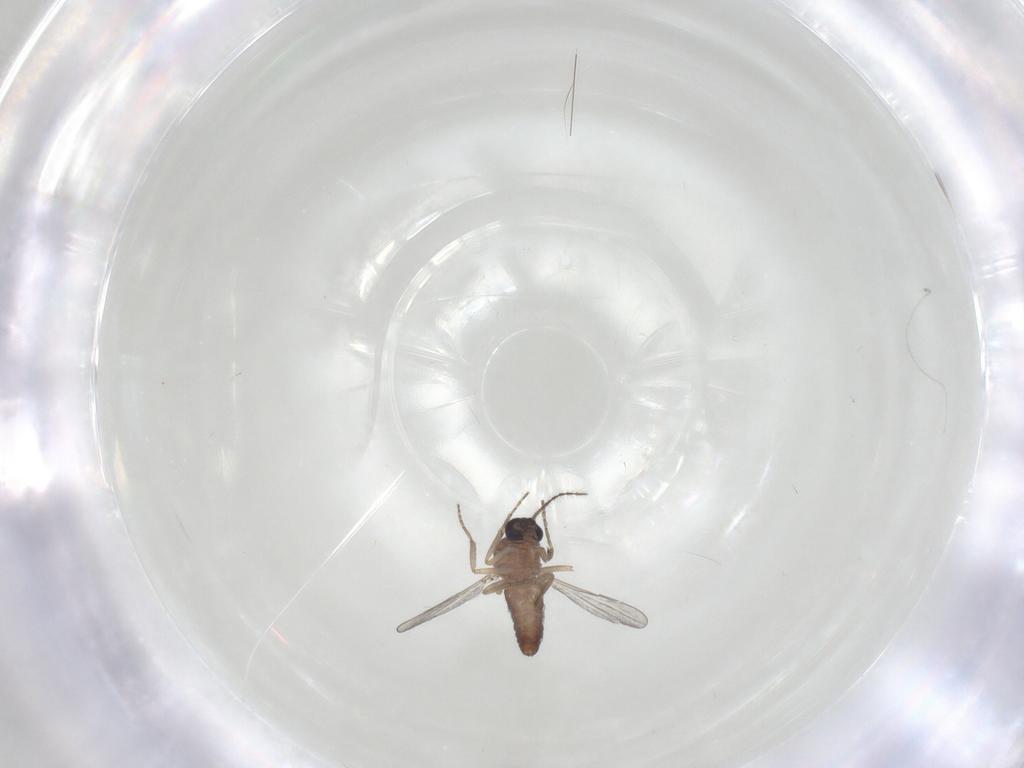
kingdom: Animalia
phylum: Arthropoda
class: Insecta
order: Diptera
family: Ceratopogonidae
